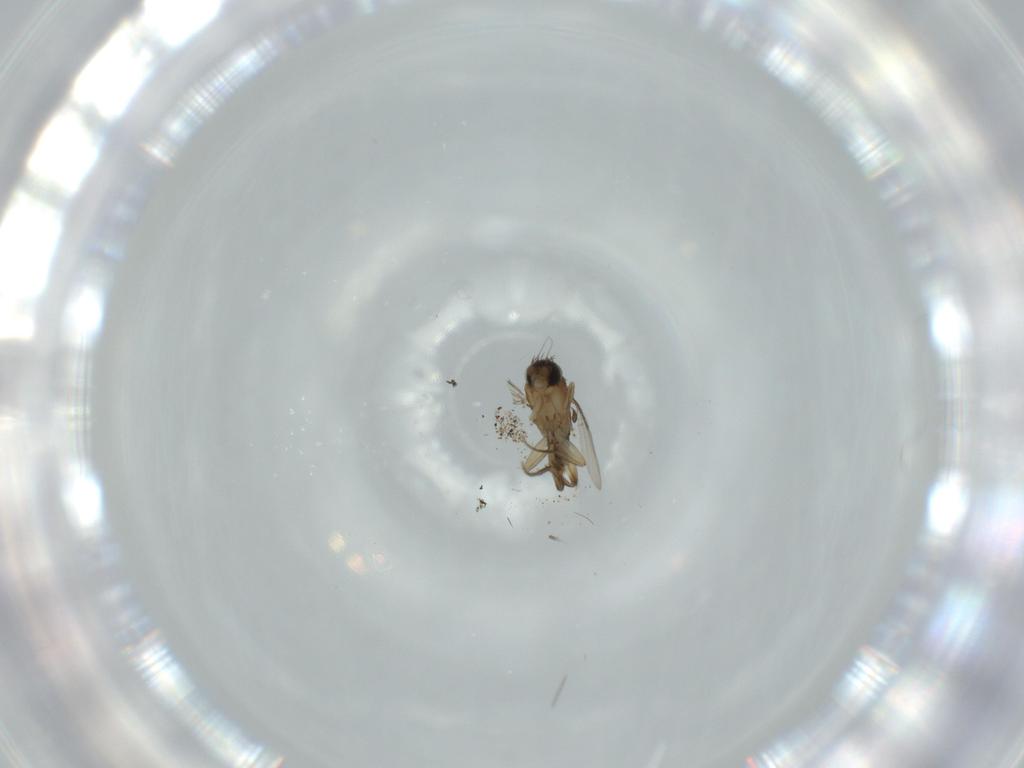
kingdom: Animalia
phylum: Arthropoda
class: Insecta
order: Diptera
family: Phoridae
